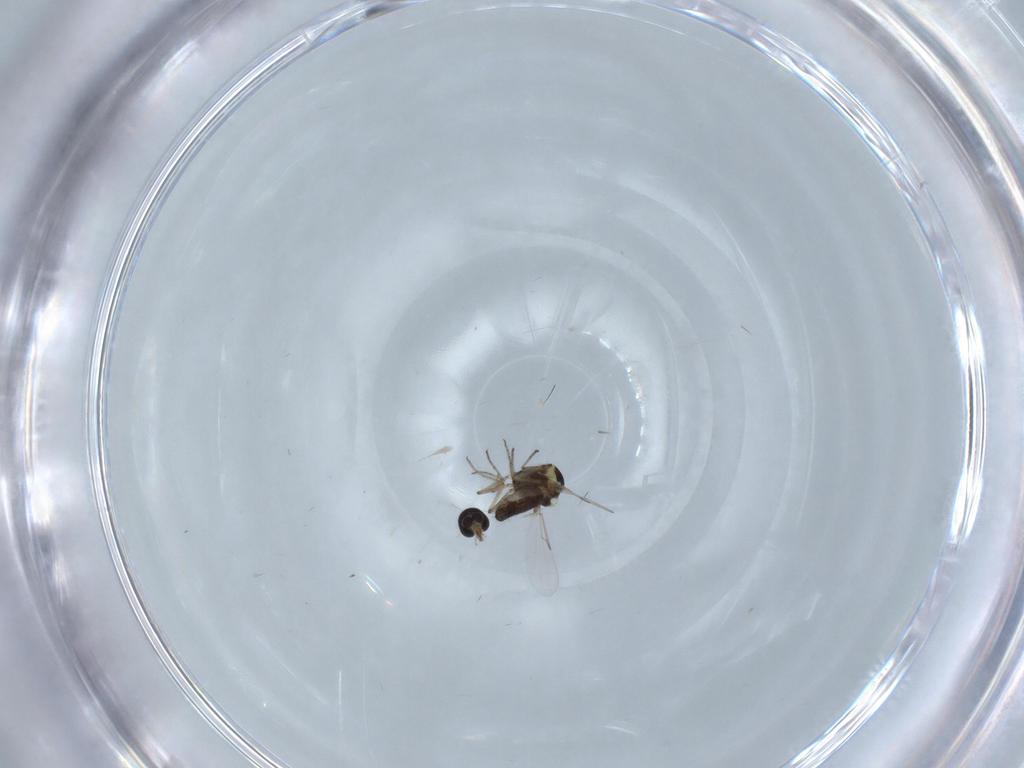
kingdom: Animalia
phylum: Arthropoda
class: Insecta
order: Diptera
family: Ceratopogonidae
